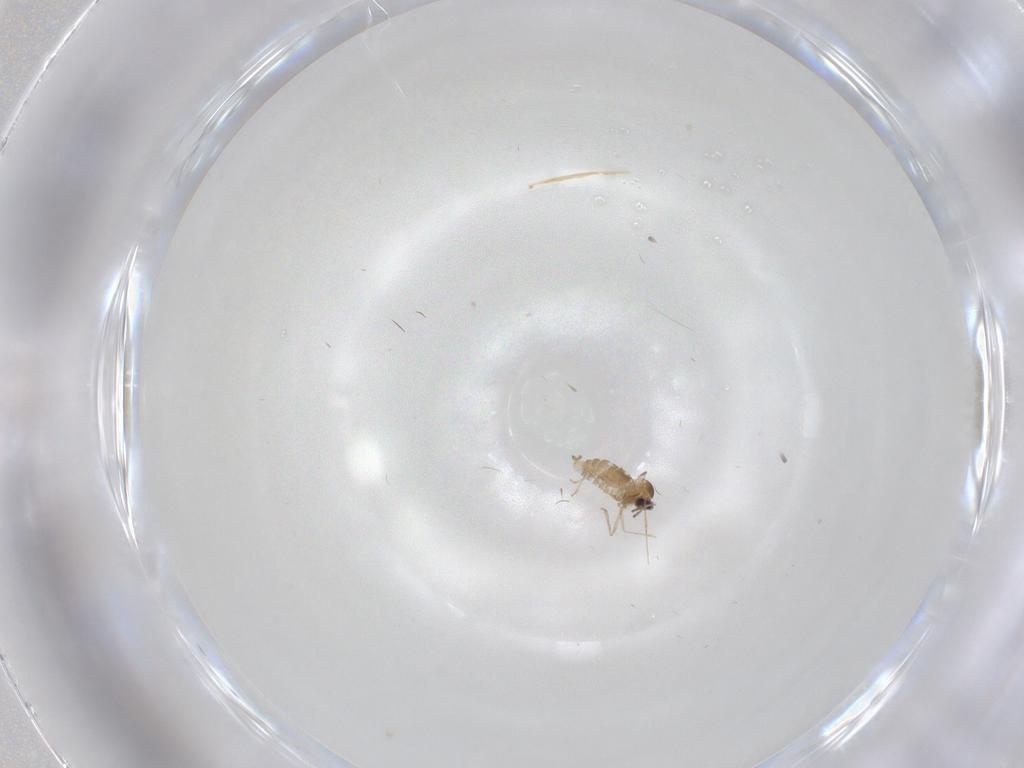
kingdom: Animalia
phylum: Arthropoda
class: Insecta
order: Diptera
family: Cecidomyiidae
